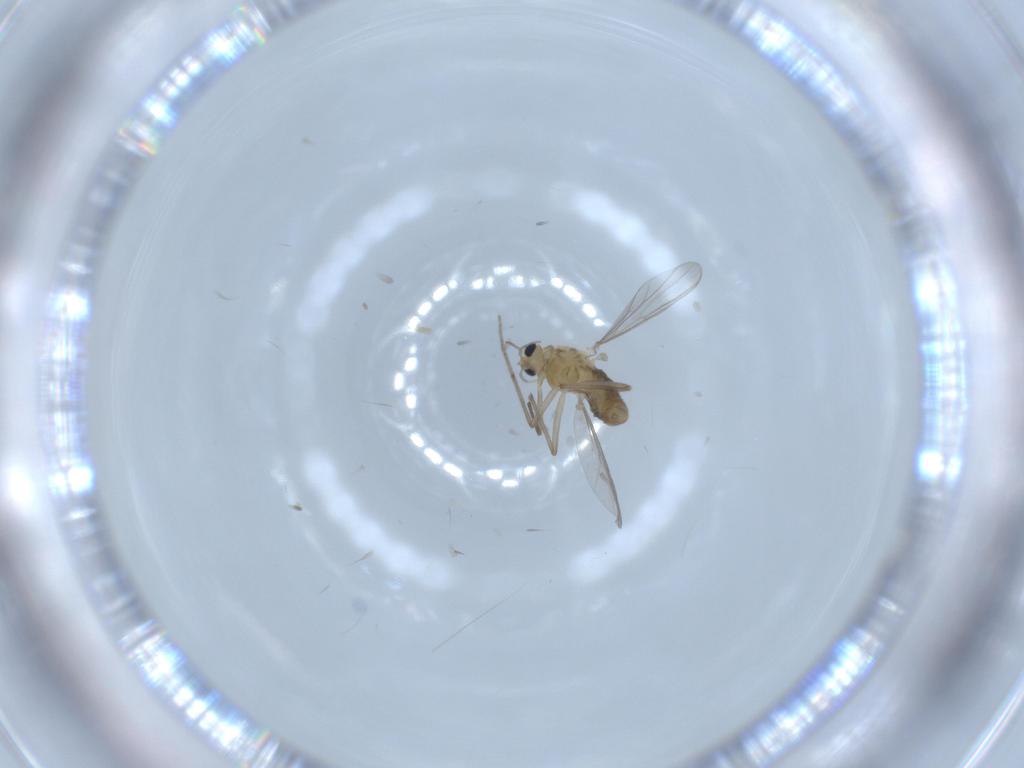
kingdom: Animalia
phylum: Arthropoda
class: Insecta
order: Diptera
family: Chironomidae
